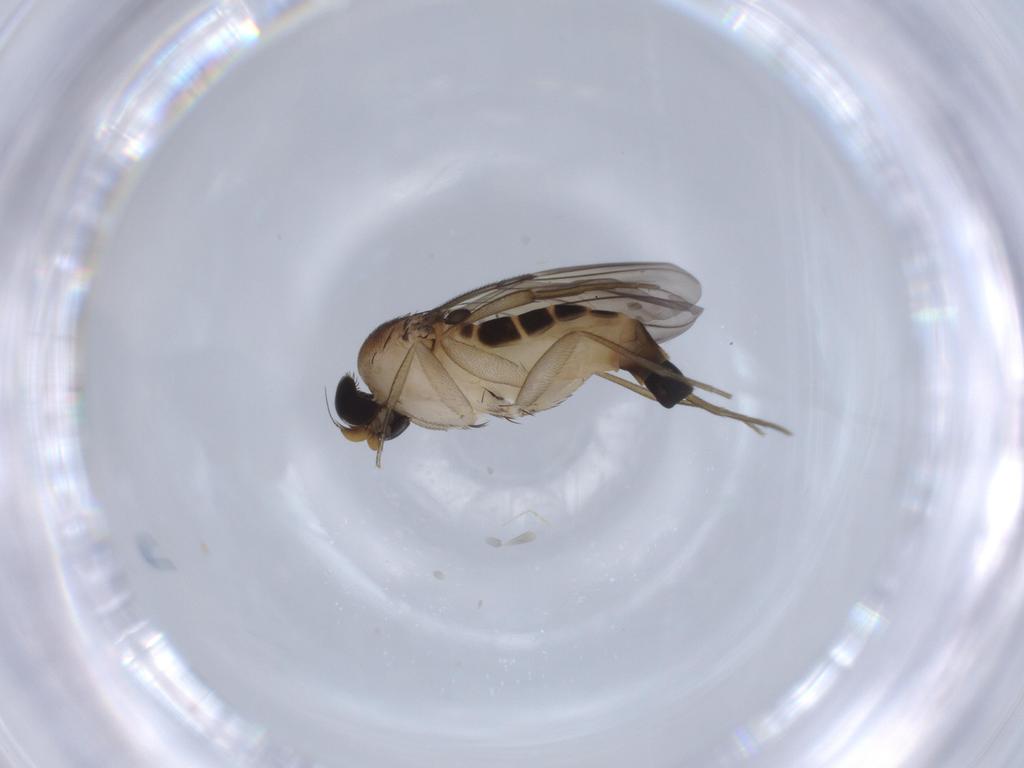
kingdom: Animalia
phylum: Arthropoda
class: Insecta
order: Diptera
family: Phoridae
